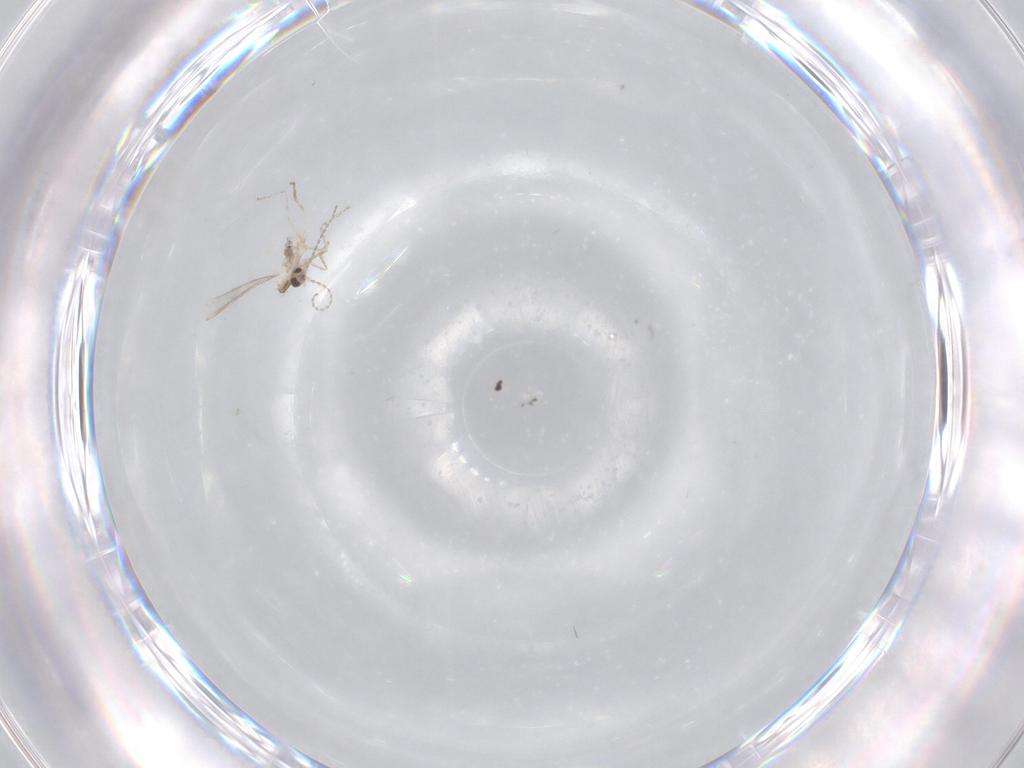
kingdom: Animalia
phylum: Arthropoda
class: Insecta
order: Diptera
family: Cecidomyiidae
